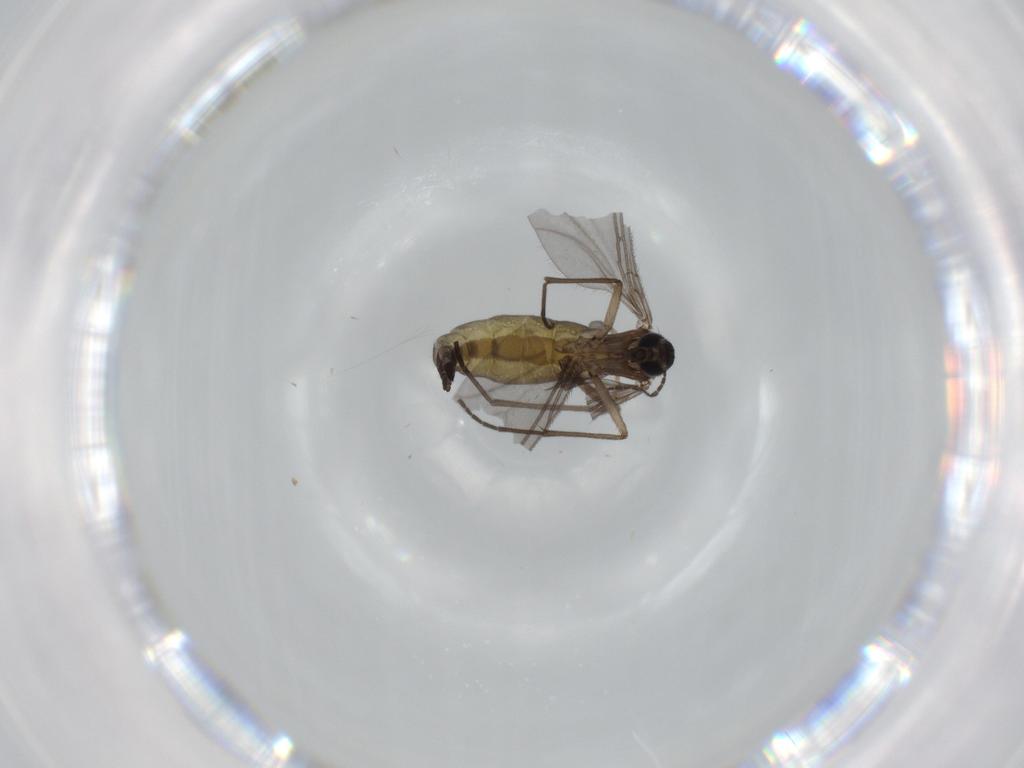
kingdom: Animalia
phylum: Arthropoda
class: Insecta
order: Diptera
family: Sciaridae
